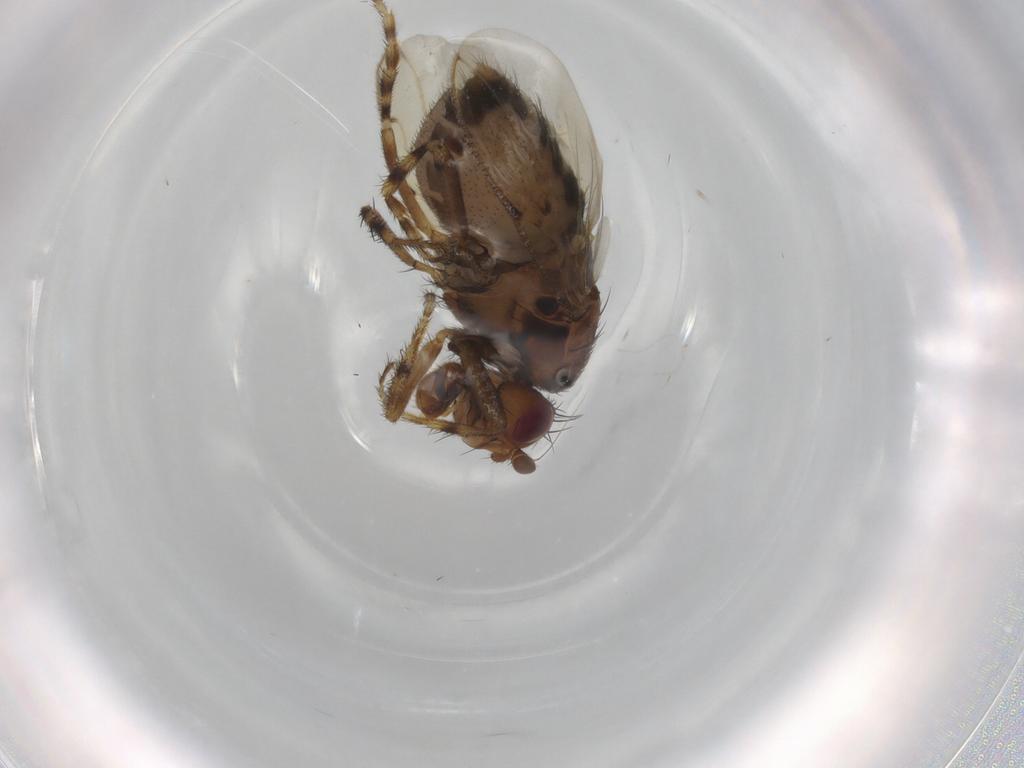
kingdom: Animalia
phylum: Arthropoda
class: Insecta
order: Diptera
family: Sphaeroceridae
